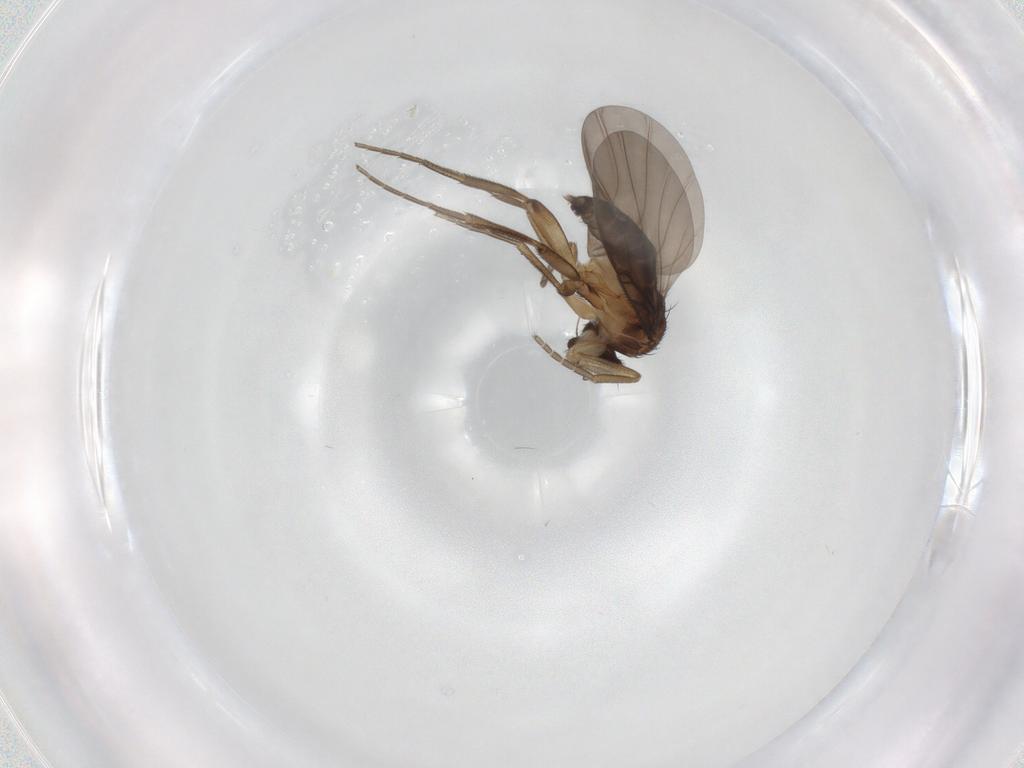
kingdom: Animalia
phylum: Arthropoda
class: Insecta
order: Diptera
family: Phoridae
